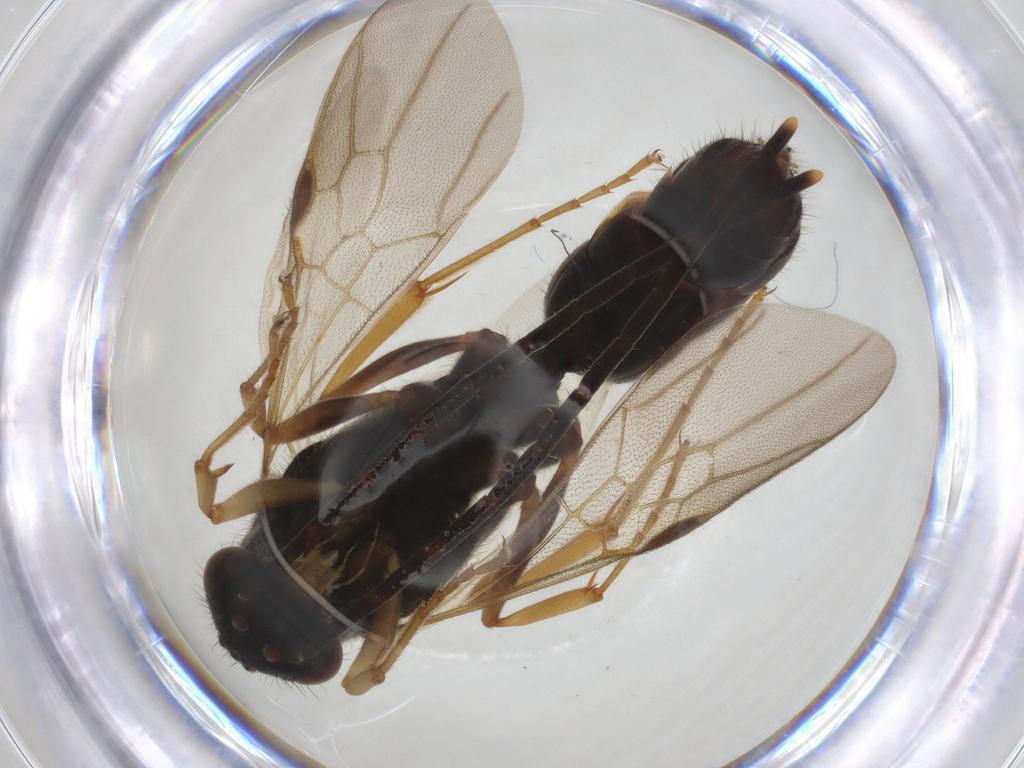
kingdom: Animalia
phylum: Arthropoda
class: Insecta
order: Hymenoptera
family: Formicidae
